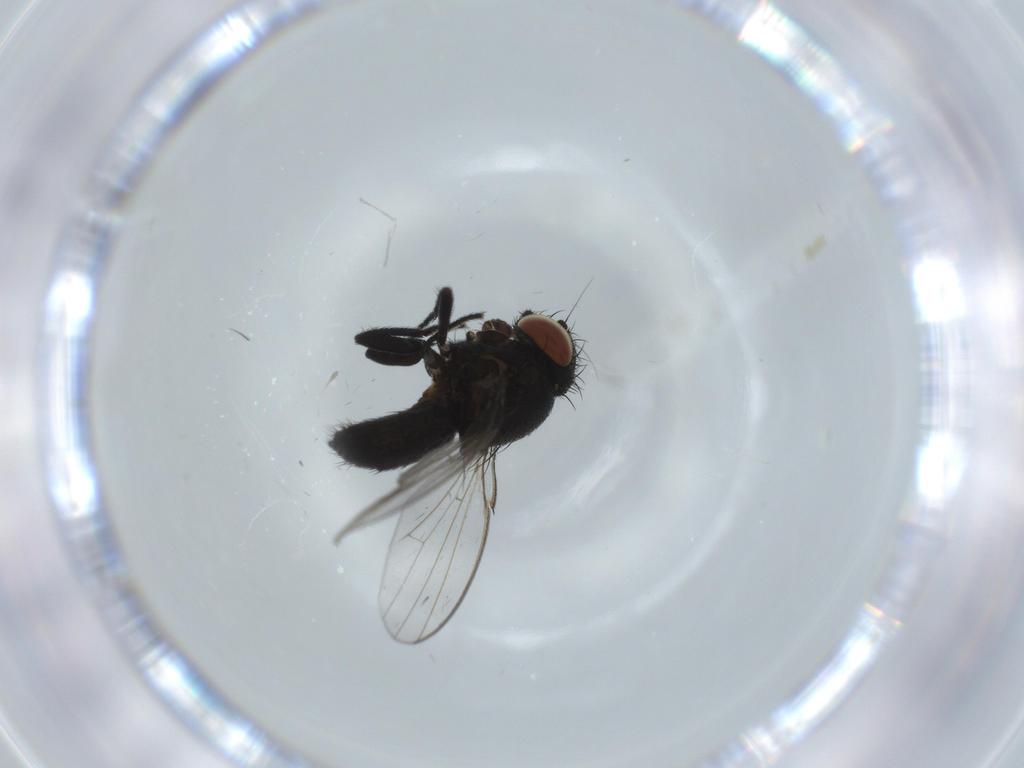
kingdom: Animalia
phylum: Arthropoda
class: Insecta
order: Diptera
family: Milichiidae
